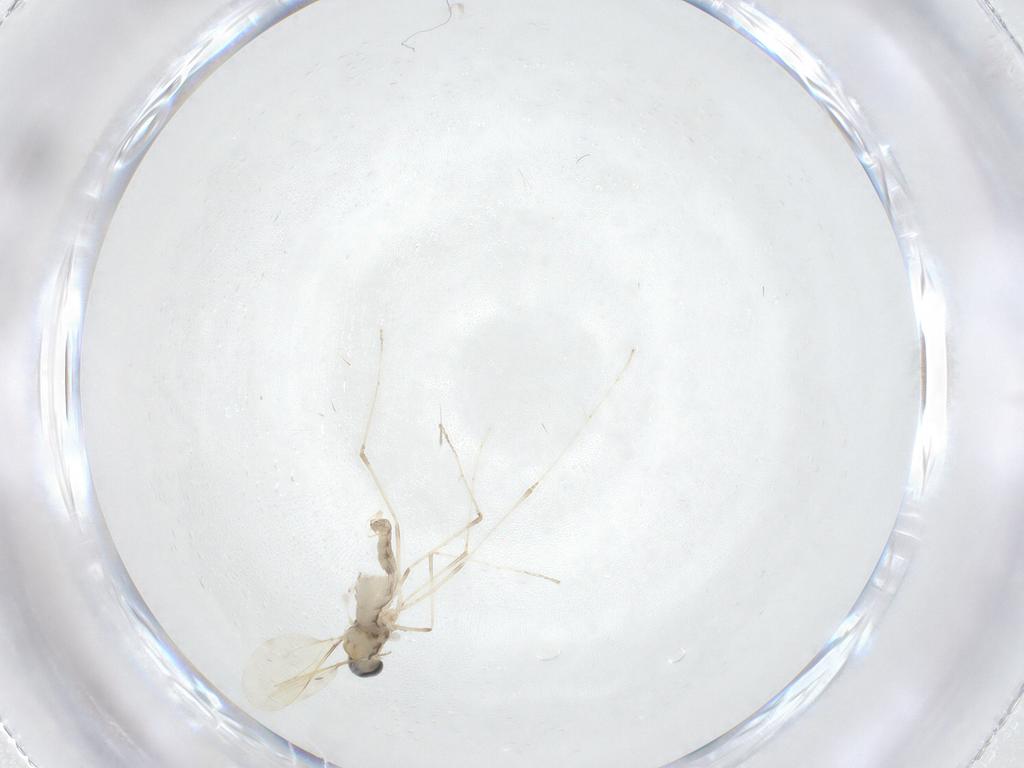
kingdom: Animalia
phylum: Arthropoda
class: Insecta
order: Diptera
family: Cecidomyiidae
